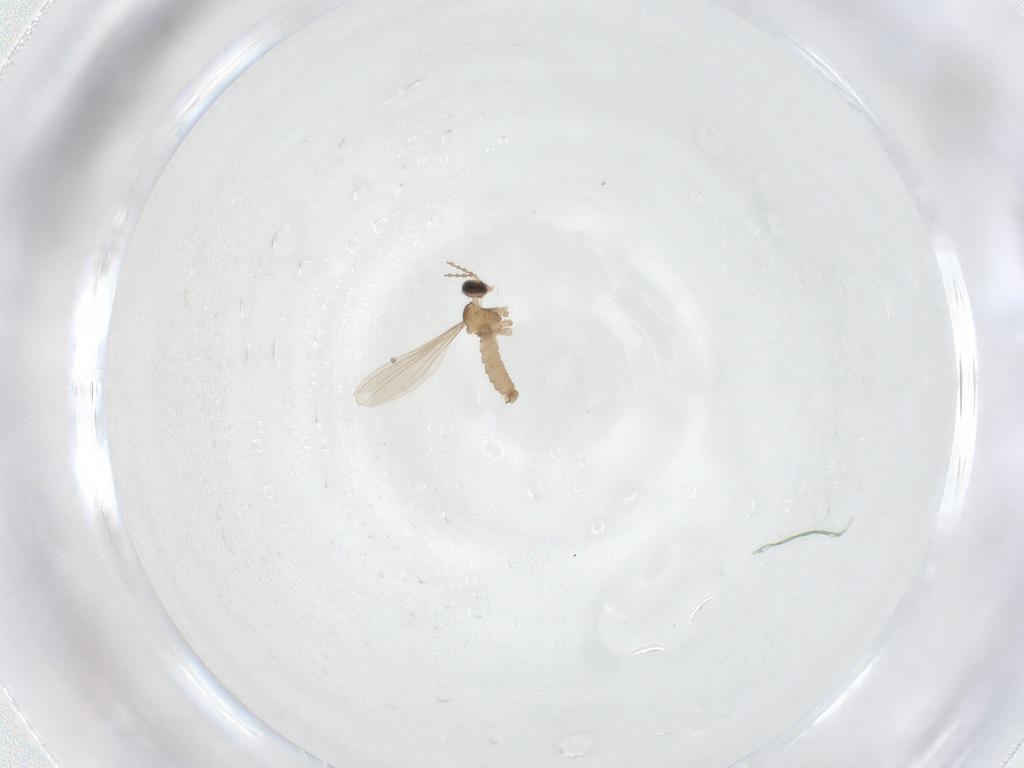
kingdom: Animalia
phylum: Arthropoda
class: Insecta
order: Diptera
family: Cecidomyiidae
